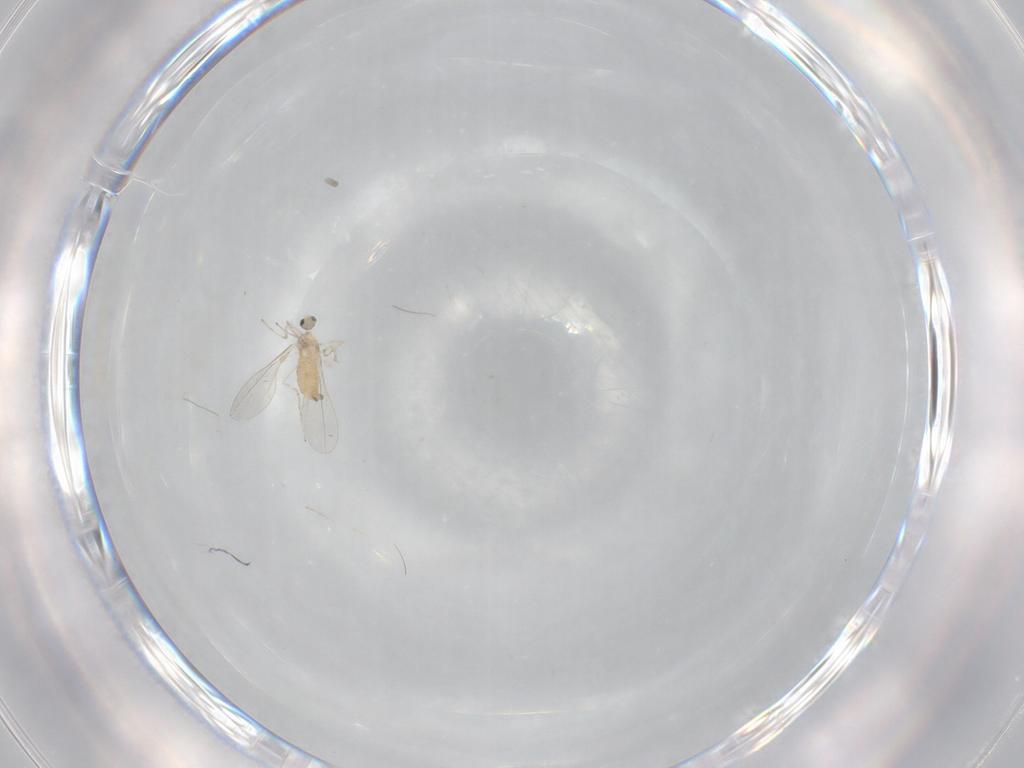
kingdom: Animalia
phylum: Arthropoda
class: Insecta
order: Diptera
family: Cecidomyiidae
